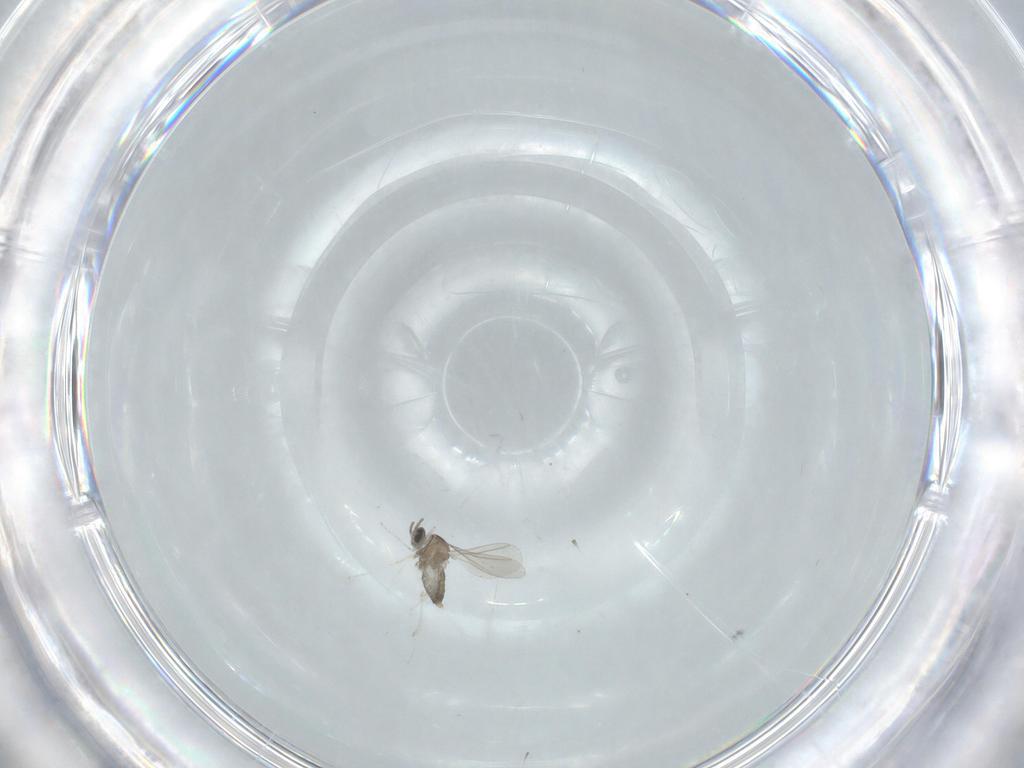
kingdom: Animalia
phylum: Arthropoda
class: Insecta
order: Diptera
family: Cecidomyiidae
